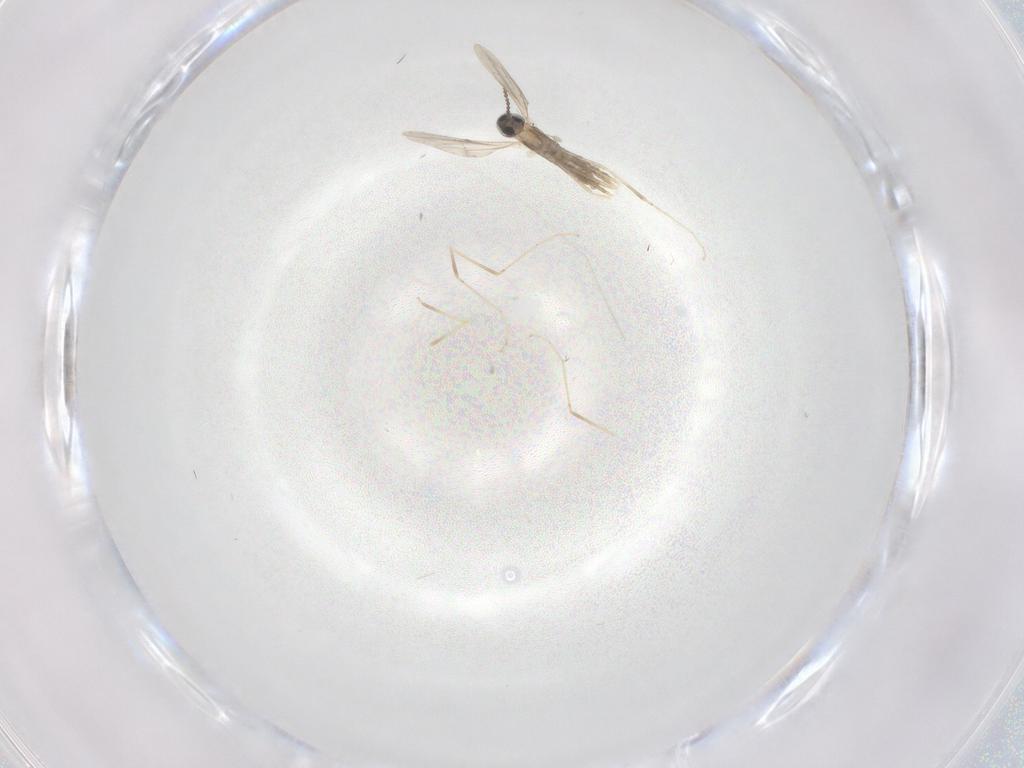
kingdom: Animalia
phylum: Arthropoda
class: Insecta
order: Diptera
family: Cecidomyiidae
